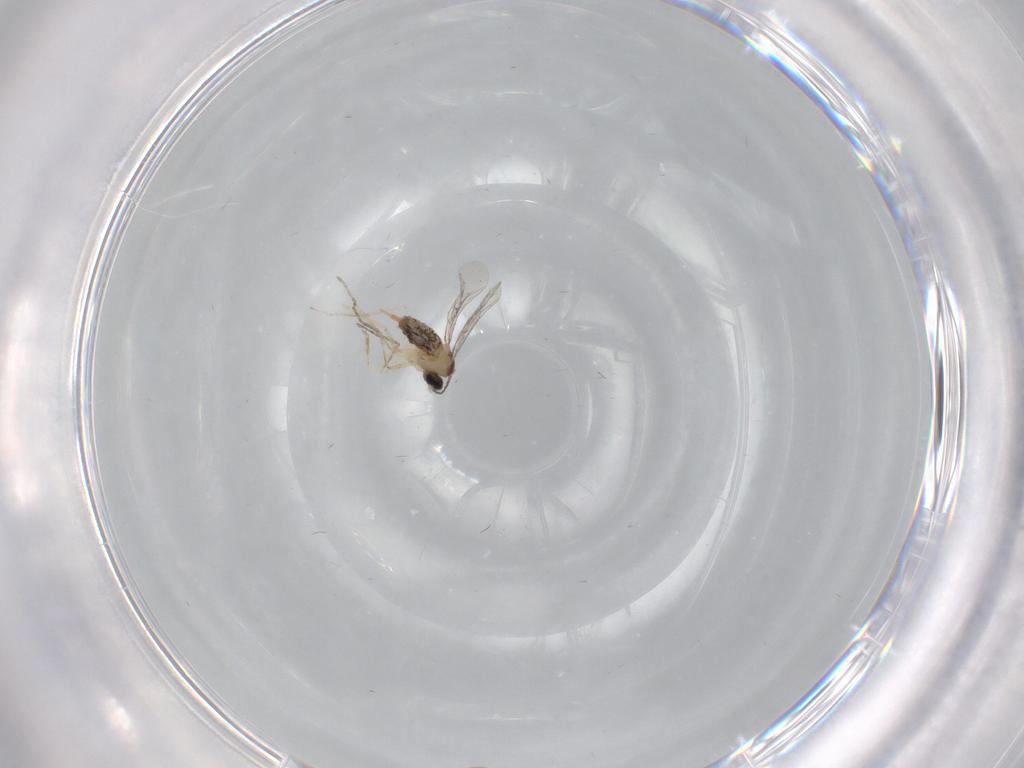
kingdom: Animalia
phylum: Arthropoda
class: Insecta
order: Diptera
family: Cecidomyiidae
